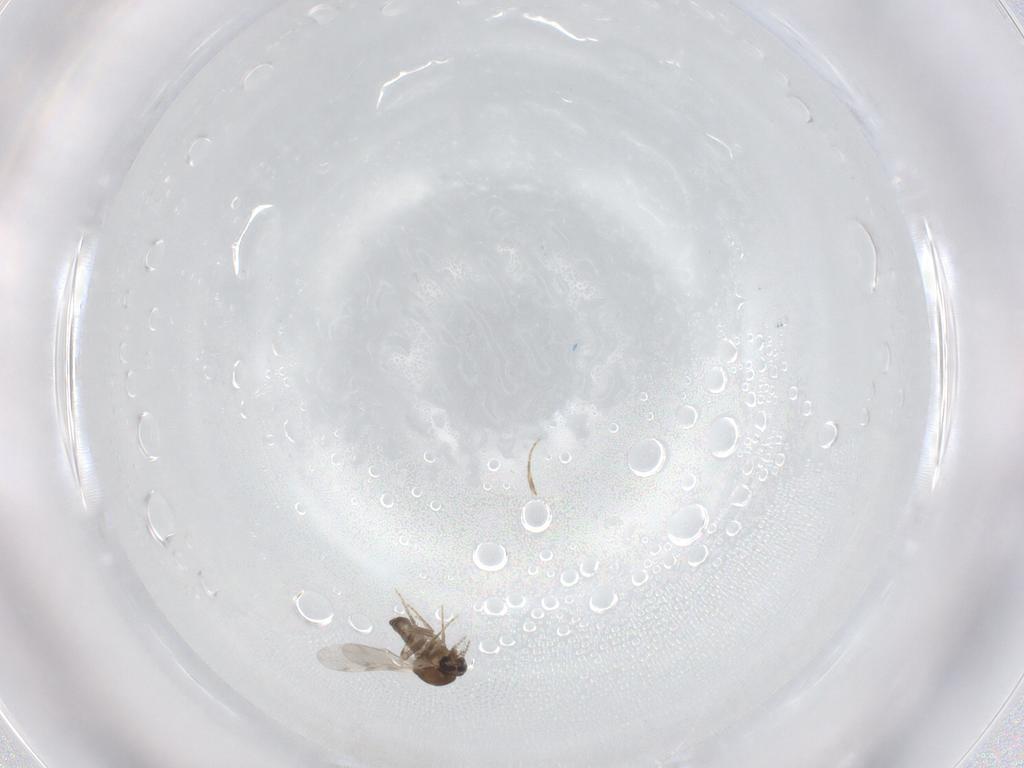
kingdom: Animalia
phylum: Arthropoda
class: Insecta
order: Diptera
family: Ceratopogonidae
